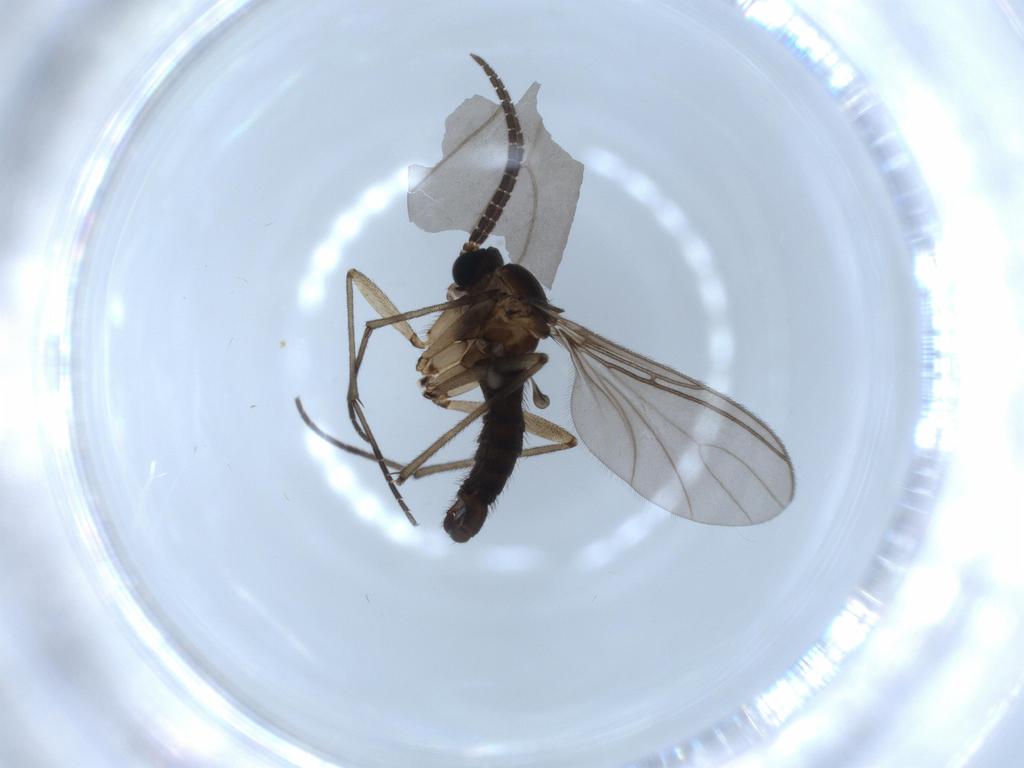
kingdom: Animalia
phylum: Arthropoda
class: Insecta
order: Diptera
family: Sciaridae
